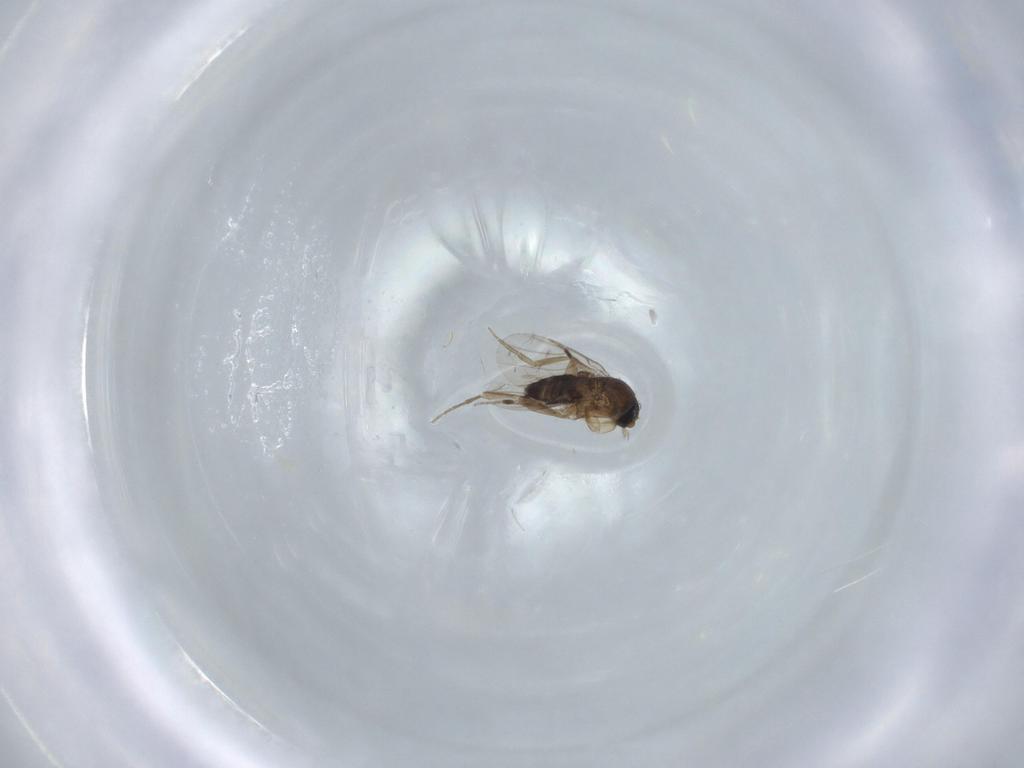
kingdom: Animalia
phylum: Arthropoda
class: Insecta
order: Diptera
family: Phoridae
